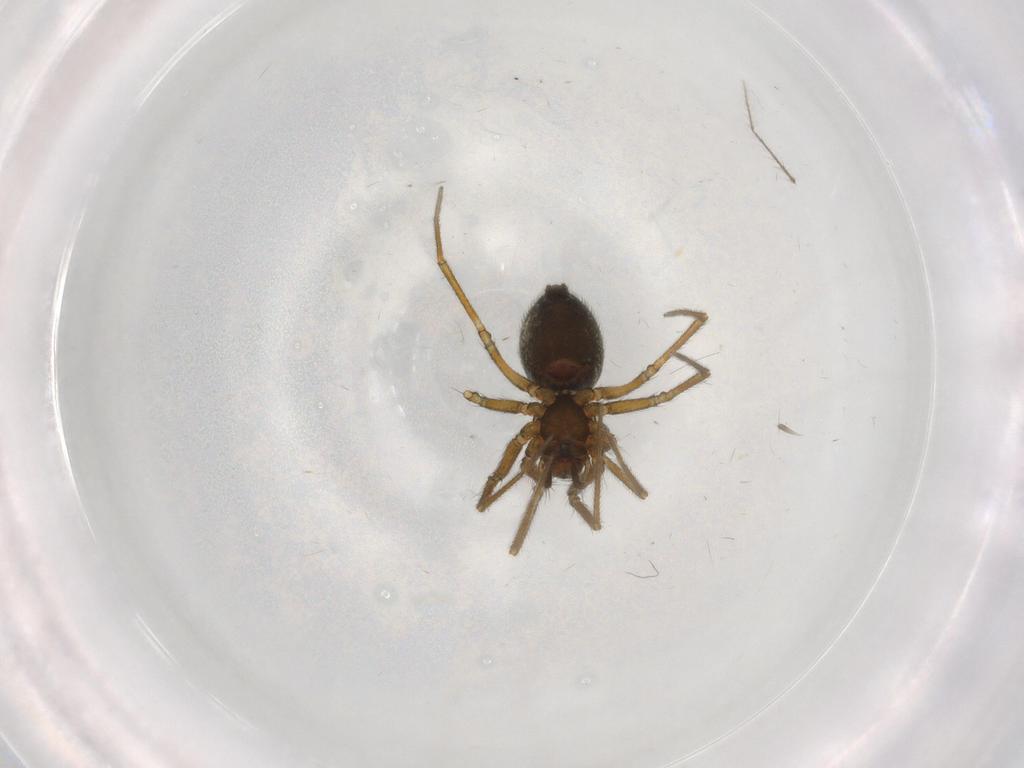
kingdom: Animalia
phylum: Arthropoda
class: Arachnida
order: Araneae
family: Linyphiidae
